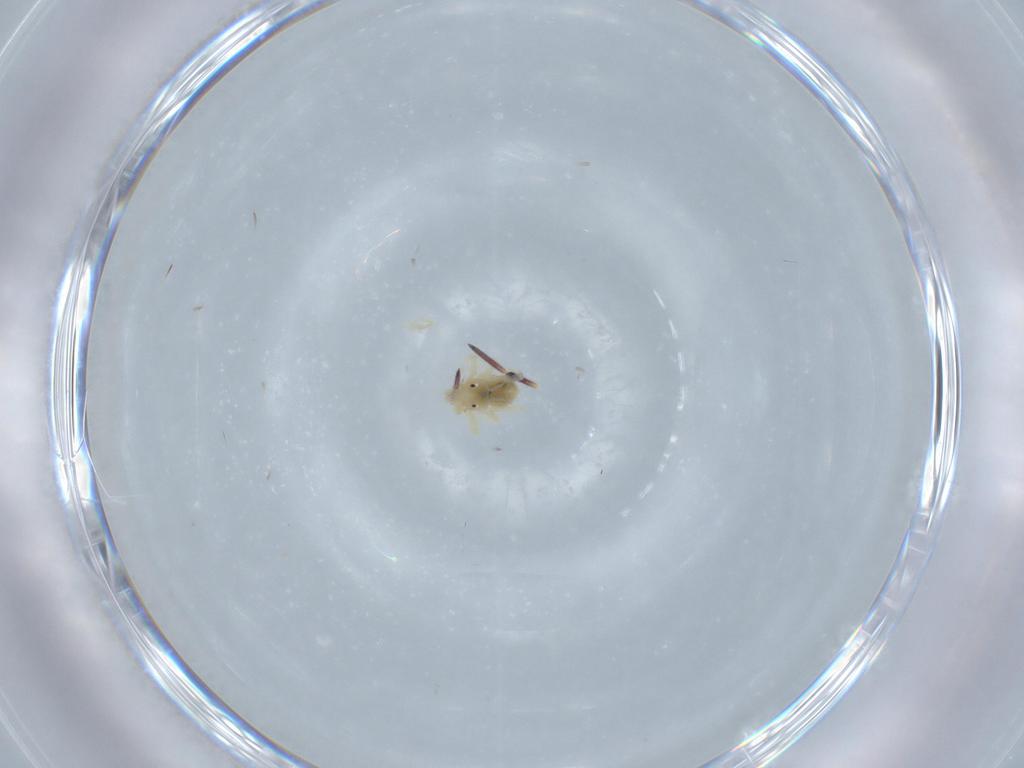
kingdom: Animalia
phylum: Arthropoda
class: Arachnida
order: Trombidiformes
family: Anystidae
